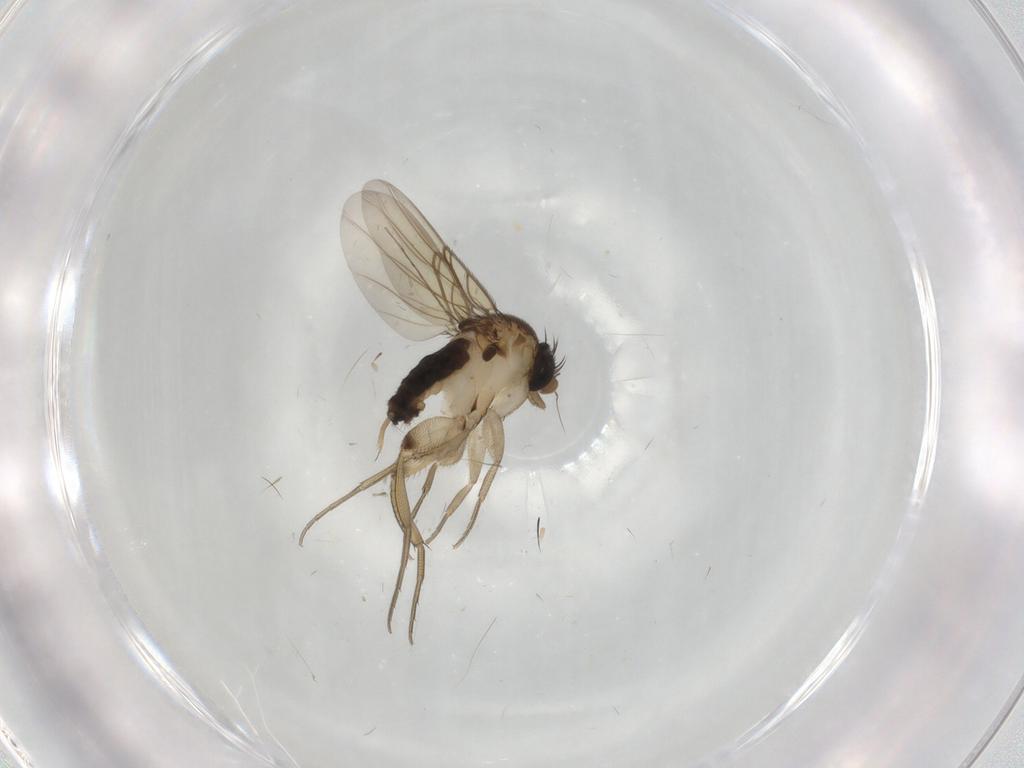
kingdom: Animalia
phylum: Arthropoda
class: Insecta
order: Diptera
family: Phoridae
